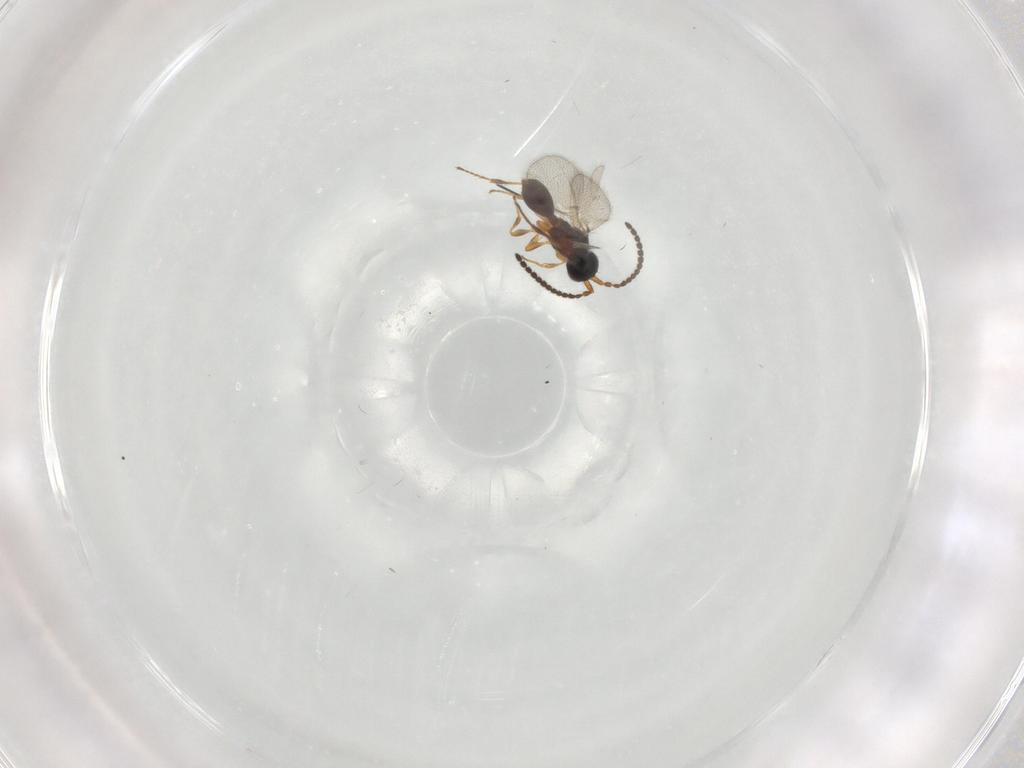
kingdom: Animalia
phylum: Arthropoda
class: Insecta
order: Hymenoptera
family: Diapriidae
